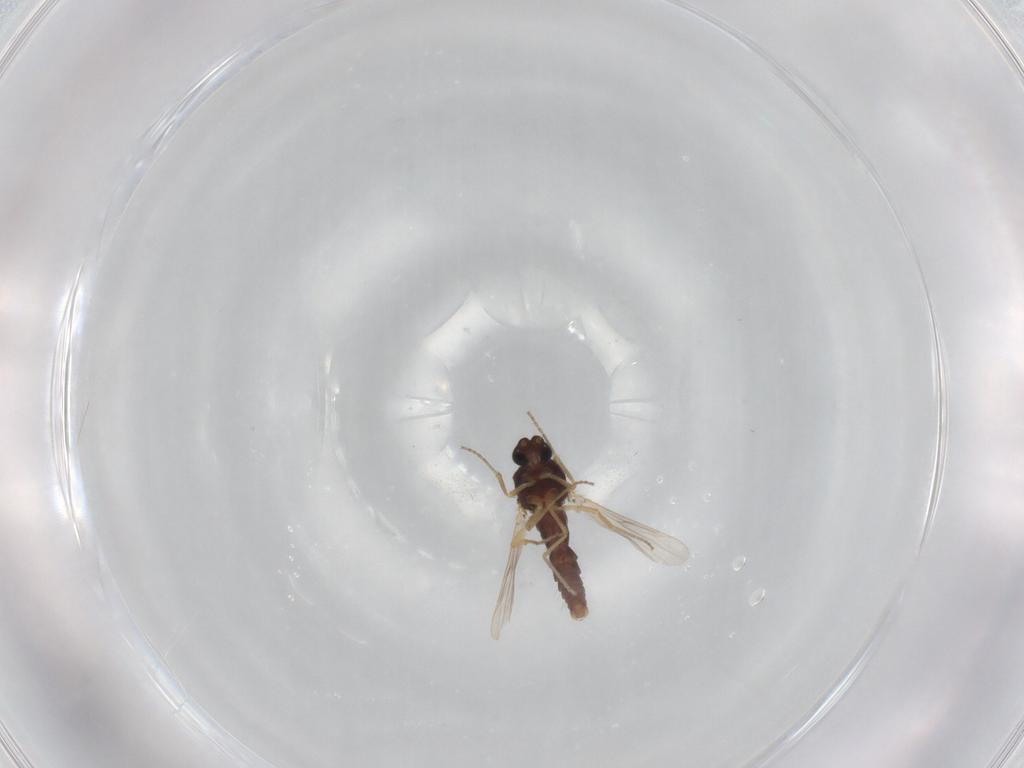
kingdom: Animalia
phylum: Arthropoda
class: Insecta
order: Diptera
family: Ceratopogonidae
